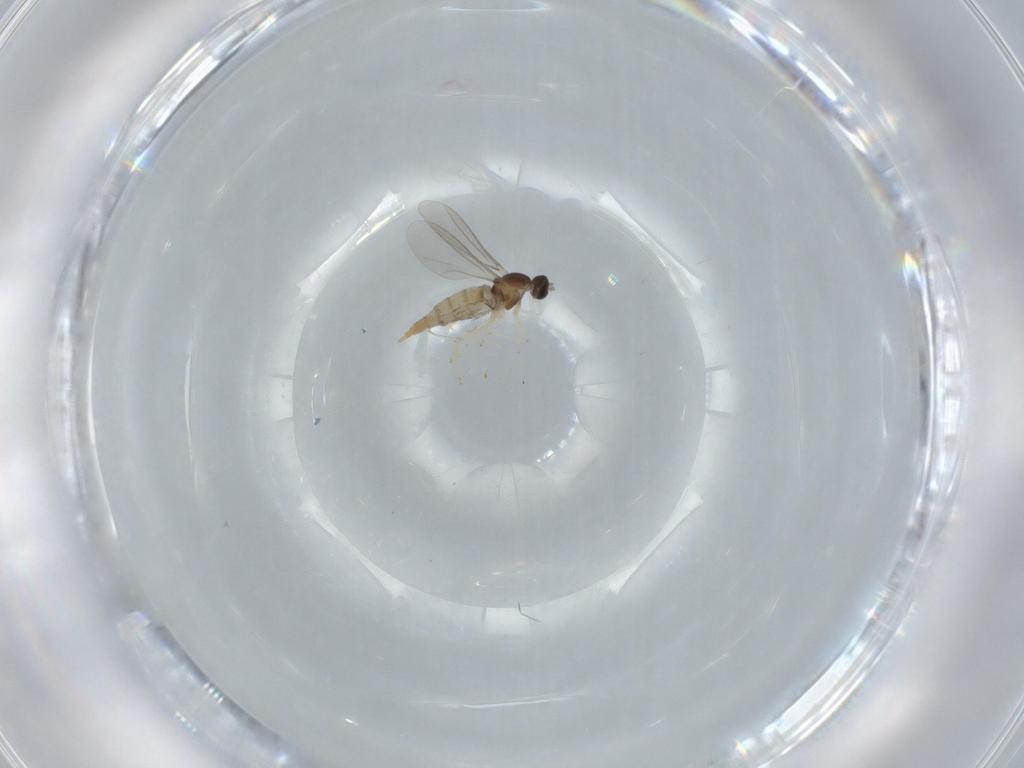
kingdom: Animalia
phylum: Arthropoda
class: Insecta
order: Diptera
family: Cecidomyiidae
